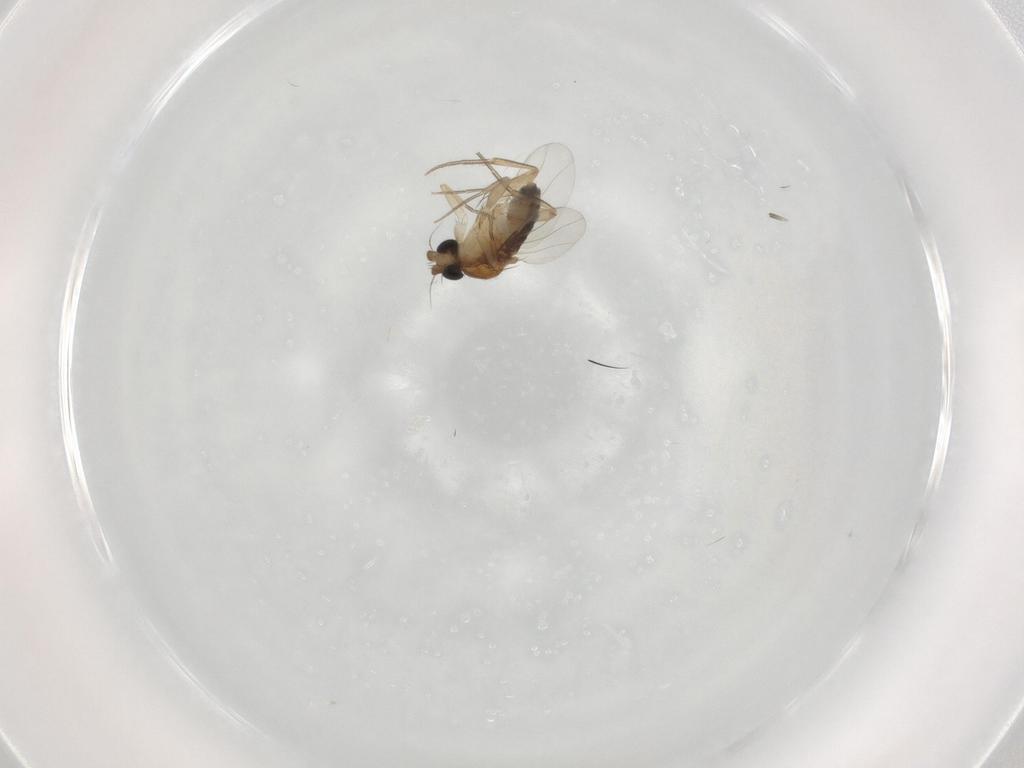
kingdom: Animalia
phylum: Arthropoda
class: Insecta
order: Diptera
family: Phoridae
